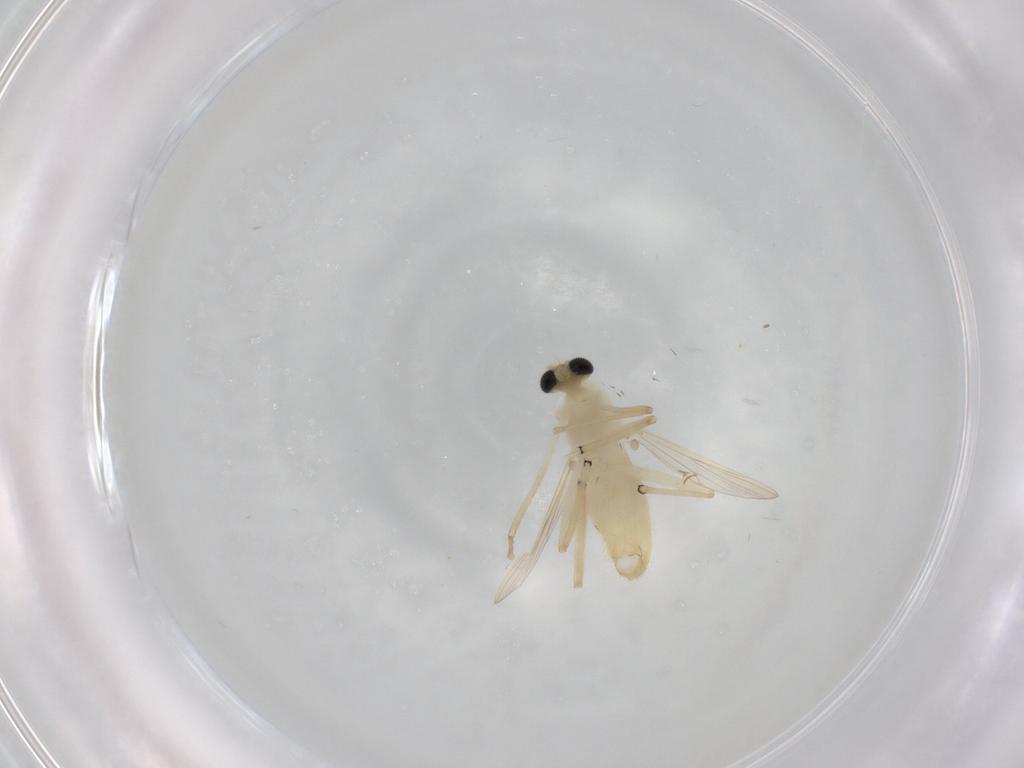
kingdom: Animalia
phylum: Arthropoda
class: Insecta
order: Diptera
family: Chironomidae
